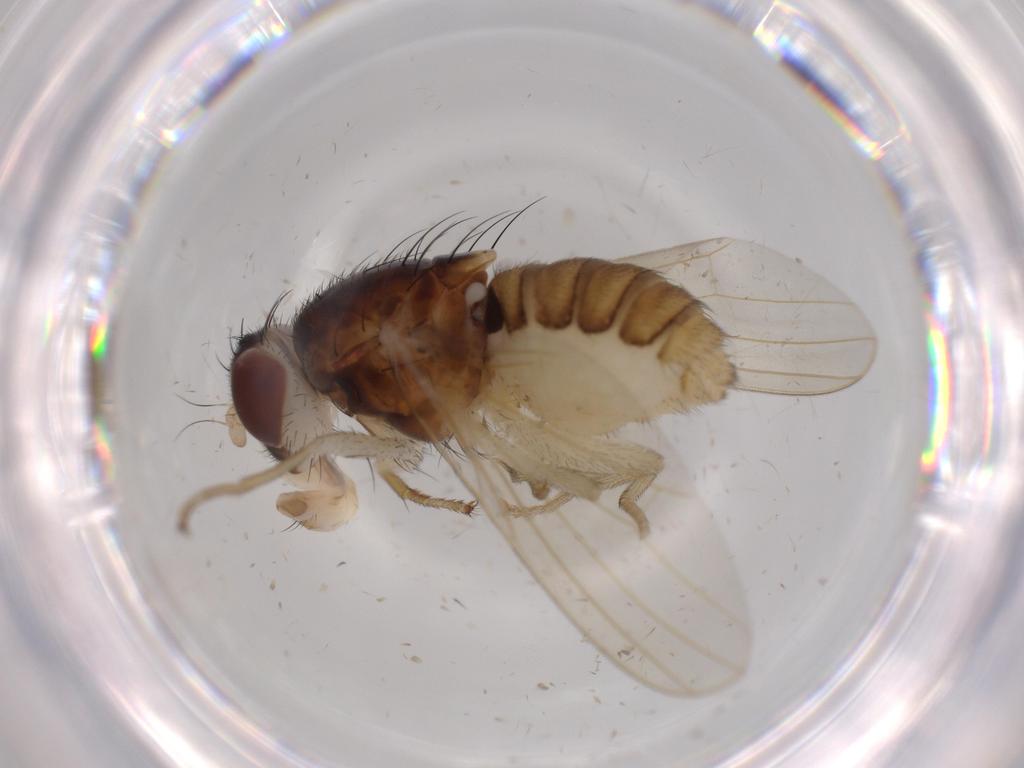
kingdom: Animalia
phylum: Arthropoda
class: Insecta
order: Diptera
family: Lauxaniidae
